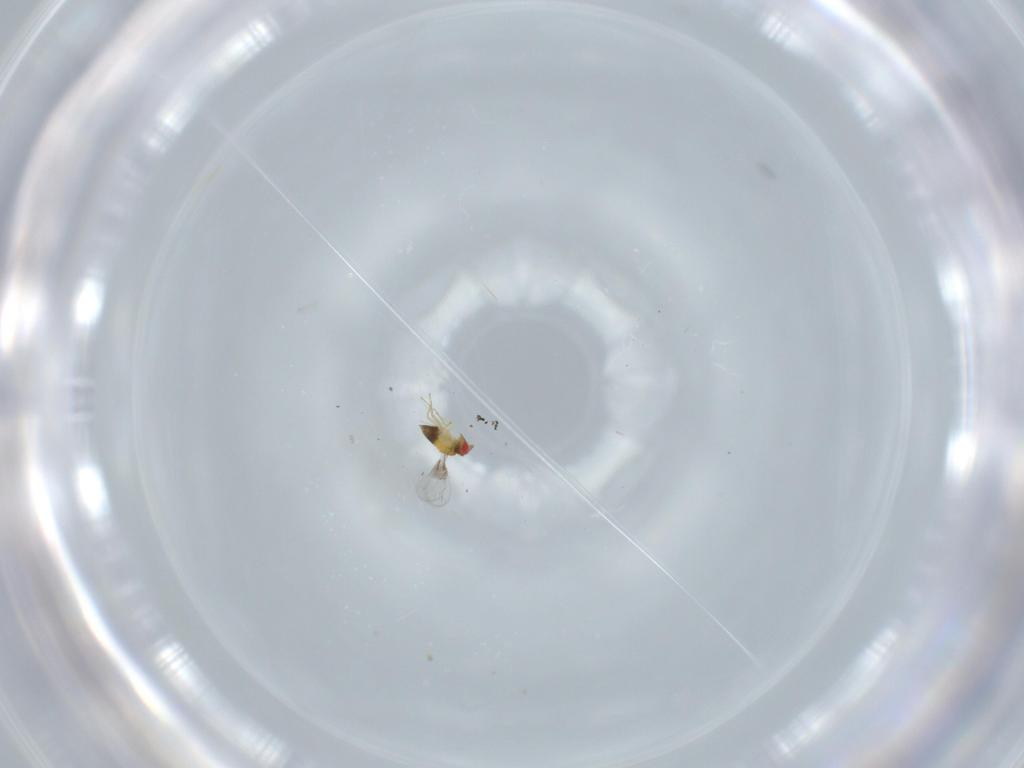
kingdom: Animalia
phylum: Arthropoda
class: Insecta
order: Hymenoptera
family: Trichogrammatidae
